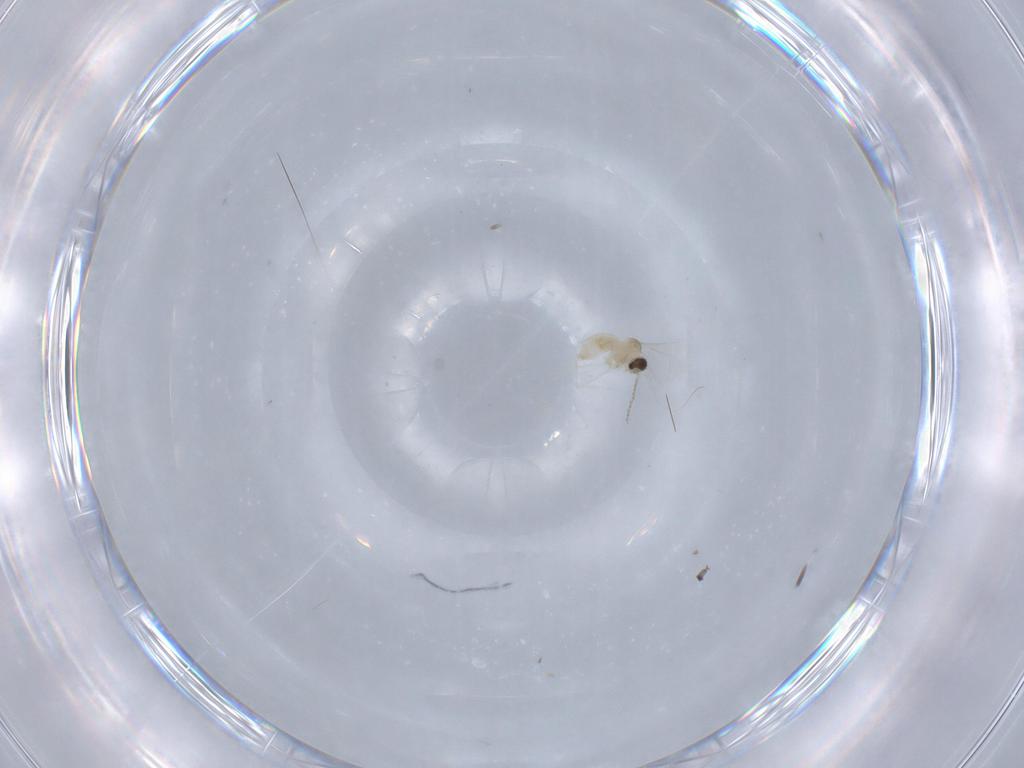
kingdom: Animalia
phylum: Arthropoda
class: Insecta
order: Diptera
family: Cecidomyiidae
